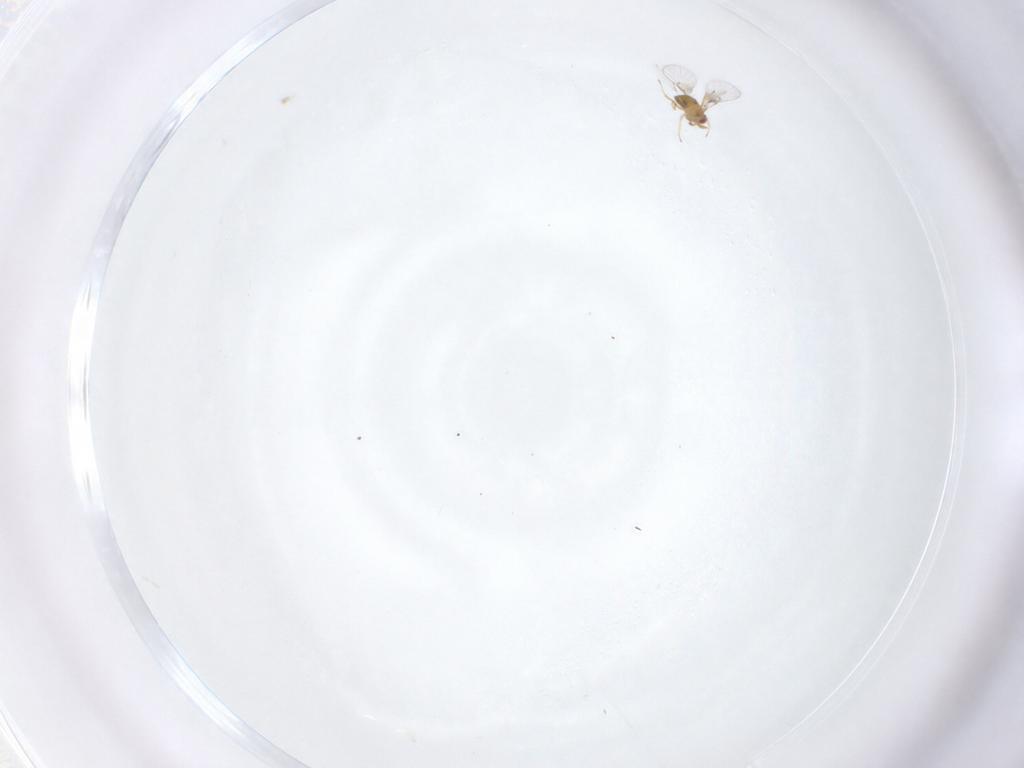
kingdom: Animalia
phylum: Arthropoda
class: Insecta
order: Hymenoptera
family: Trichogrammatidae
